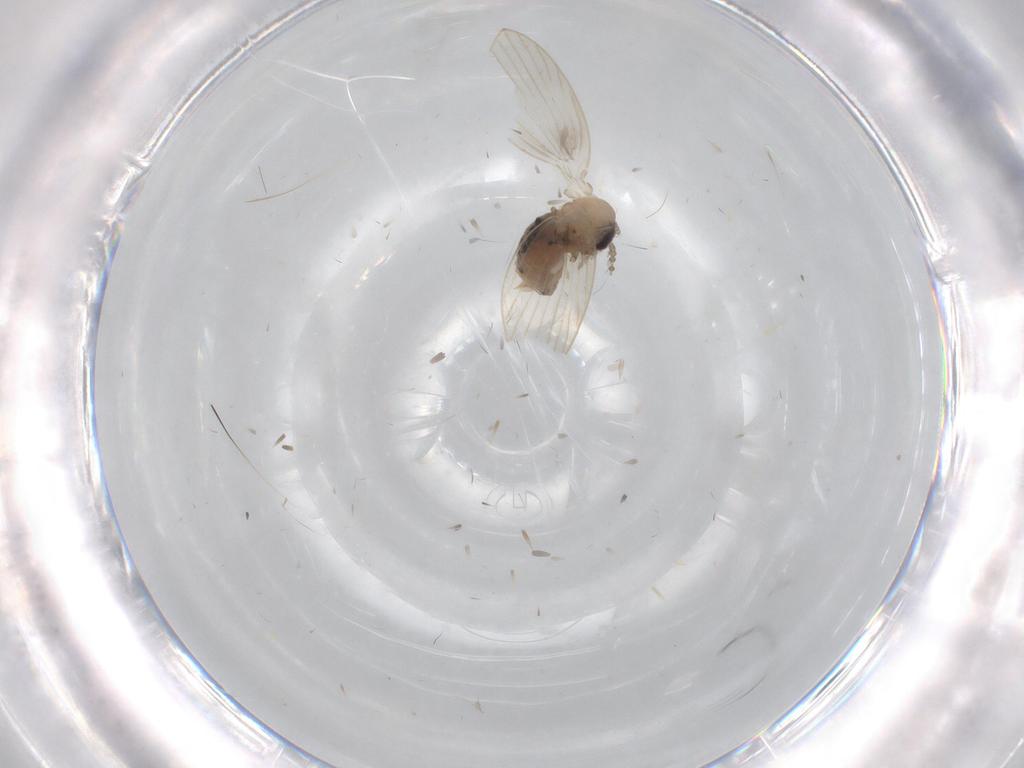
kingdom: Animalia
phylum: Arthropoda
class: Insecta
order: Diptera
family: Psychodidae
